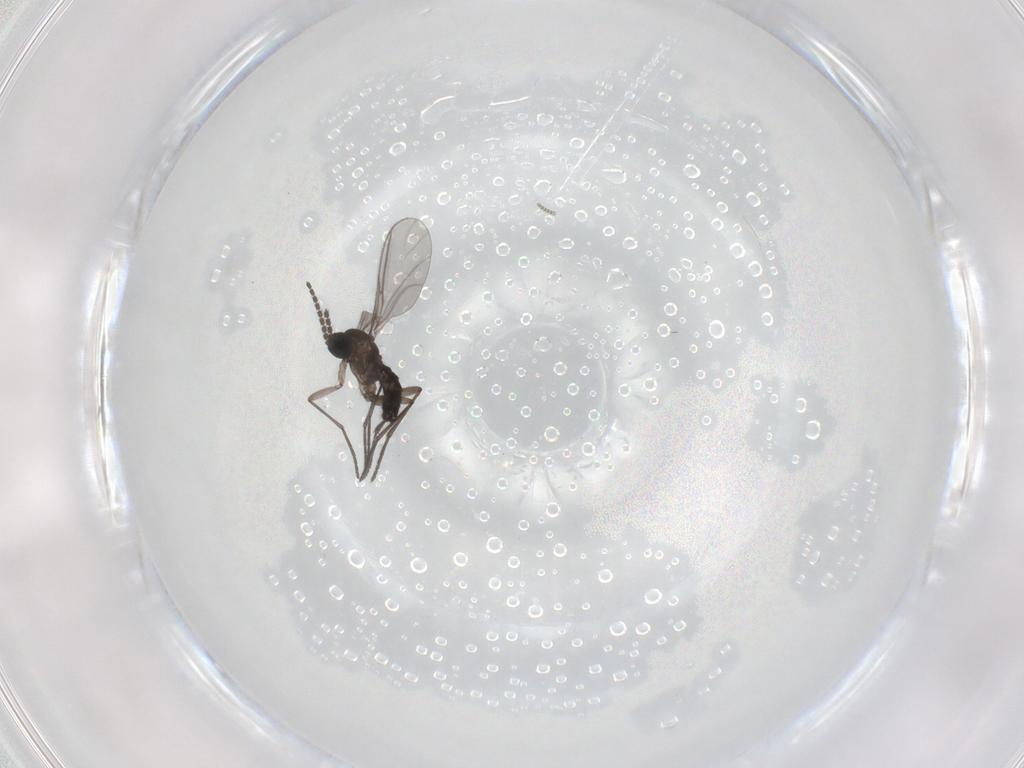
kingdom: Animalia
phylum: Arthropoda
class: Insecta
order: Diptera
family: Cecidomyiidae
